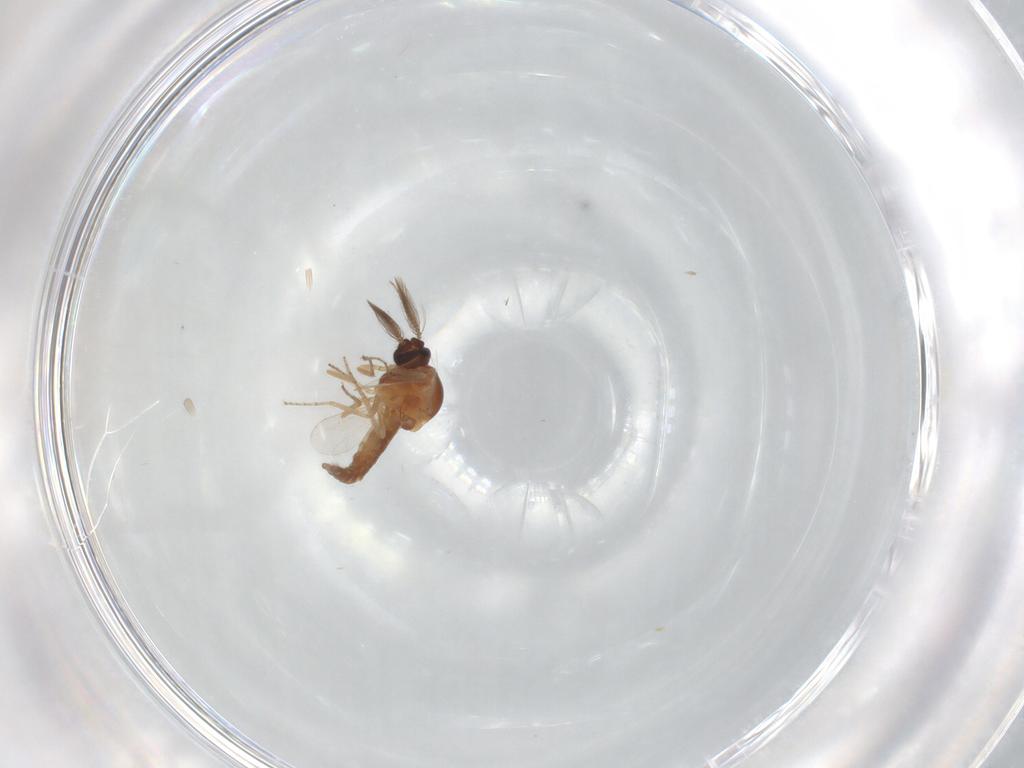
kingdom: Animalia
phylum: Arthropoda
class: Insecta
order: Diptera
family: Ceratopogonidae
